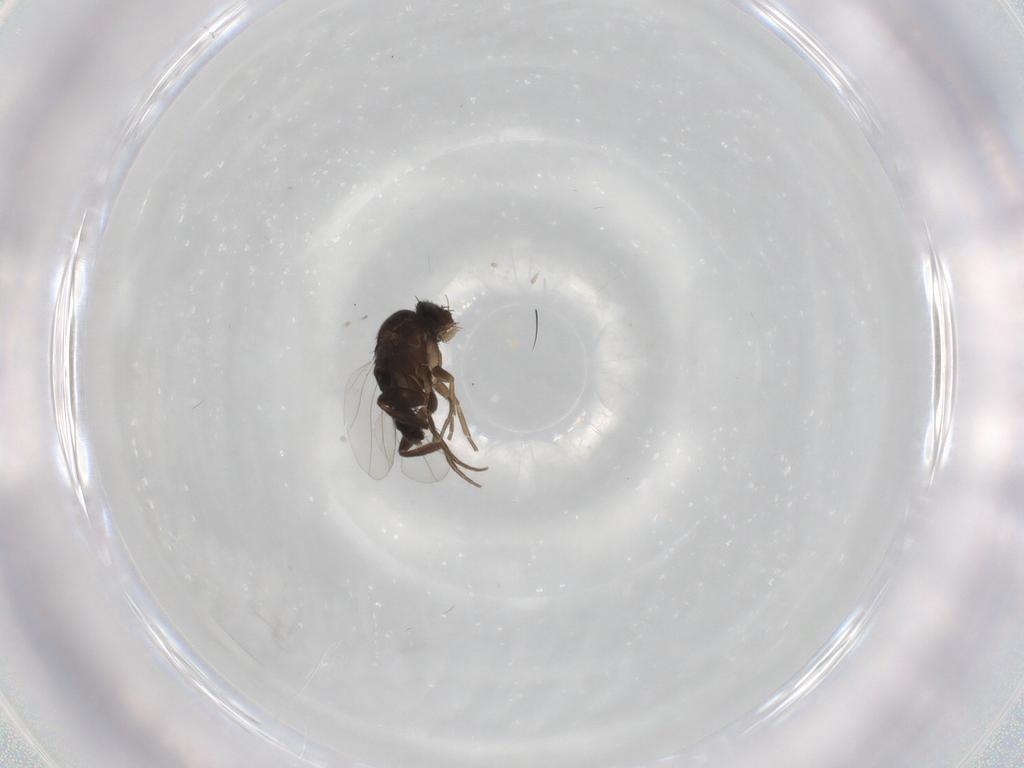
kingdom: Animalia
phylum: Arthropoda
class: Insecta
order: Diptera
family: Phoridae
